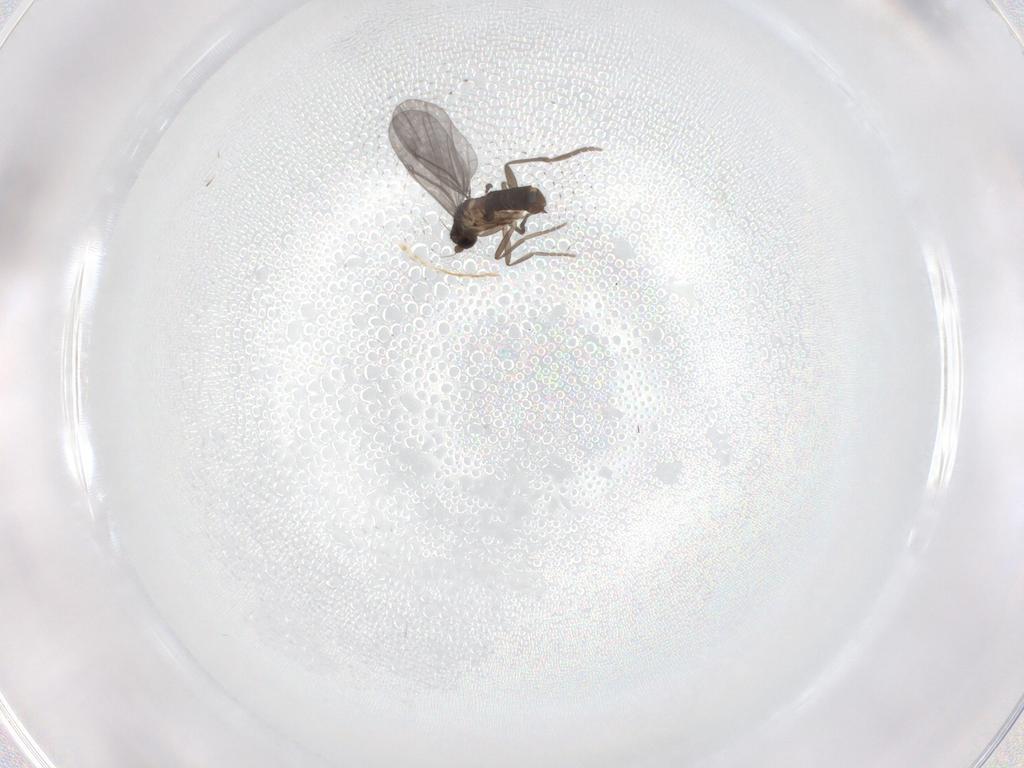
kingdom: Animalia
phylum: Arthropoda
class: Insecta
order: Diptera
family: Phoridae
